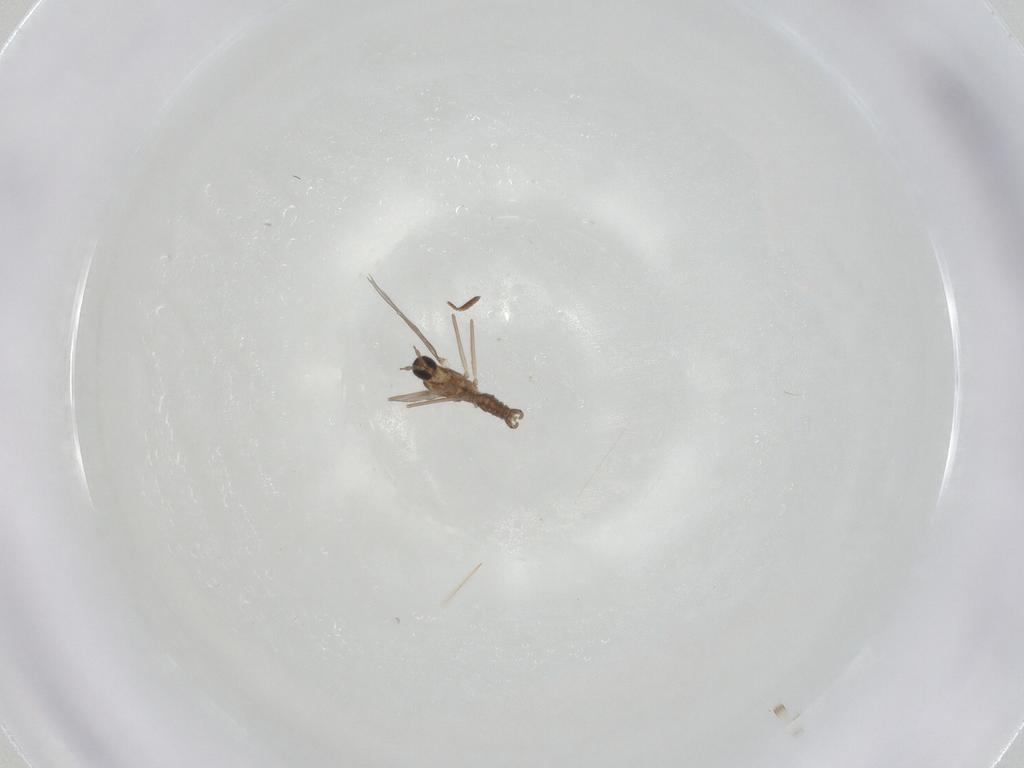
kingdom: Animalia
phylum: Arthropoda
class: Insecta
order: Hymenoptera
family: Scelionidae
